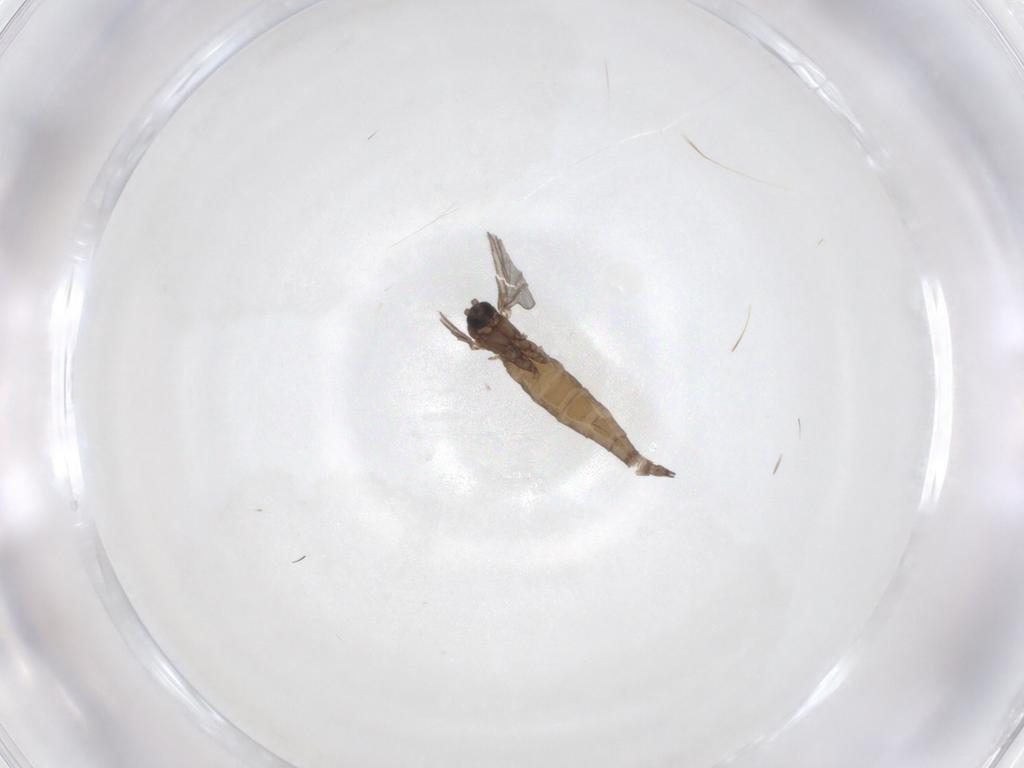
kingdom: Animalia
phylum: Arthropoda
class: Insecta
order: Diptera
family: Sciaridae
